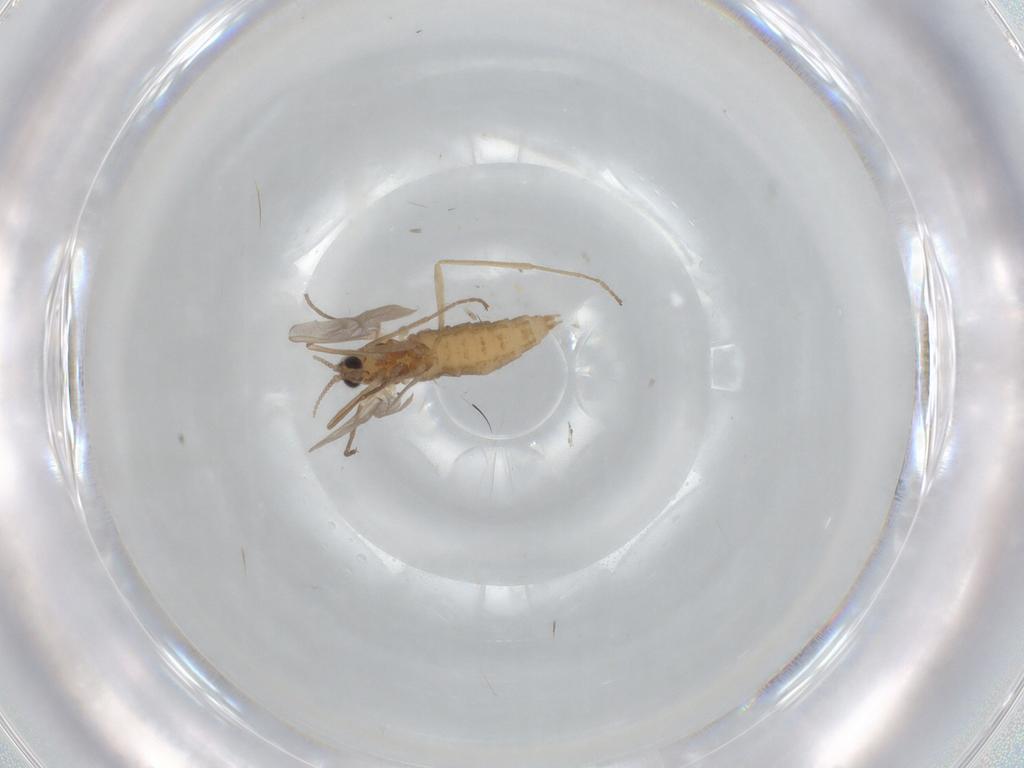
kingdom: Animalia
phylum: Arthropoda
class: Insecta
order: Diptera
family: Cecidomyiidae
